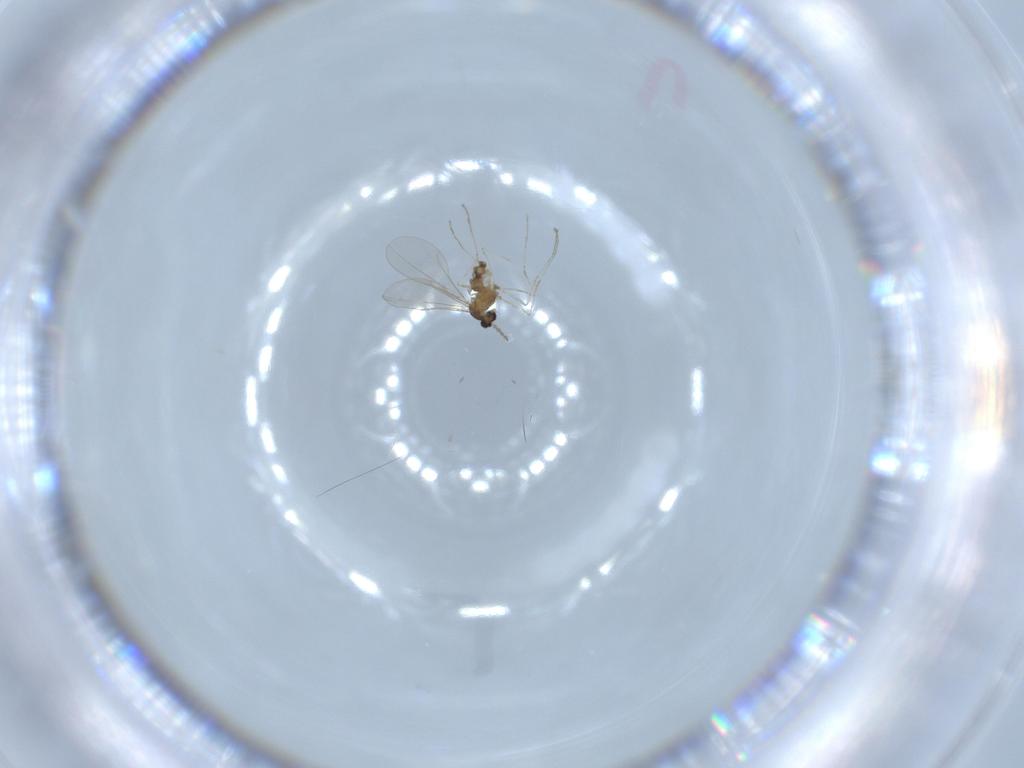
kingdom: Animalia
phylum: Arthropoda
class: Insecta
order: Diptera
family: Cecidomyiidae
